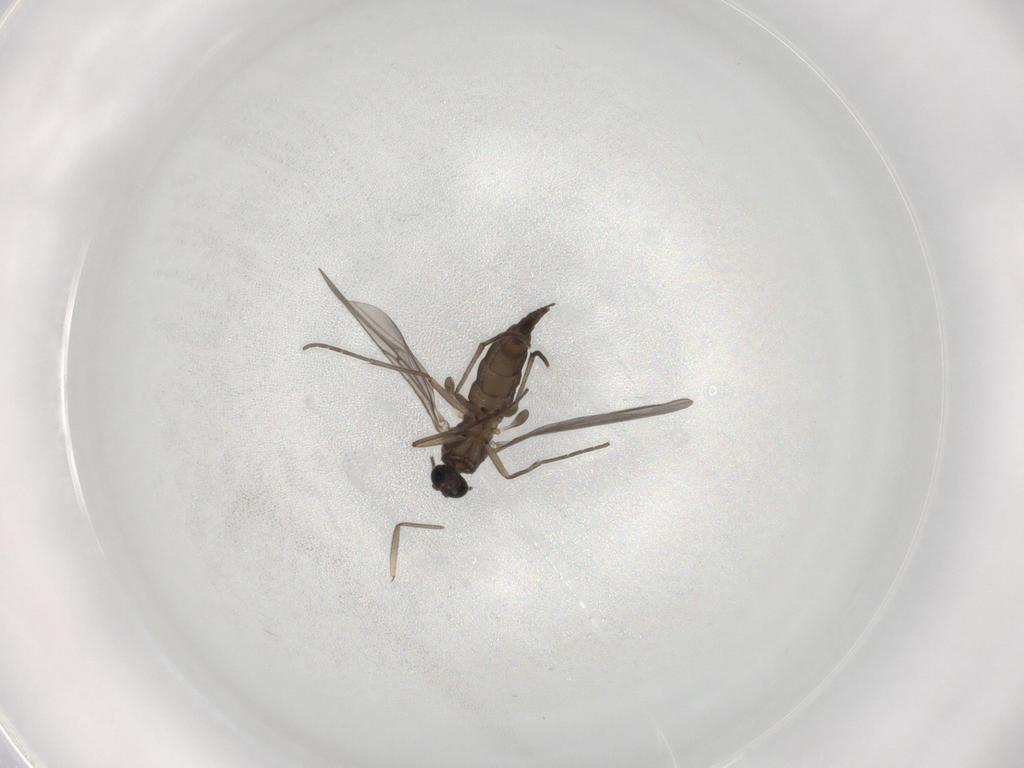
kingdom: Animalia
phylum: Arthropoda
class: Insecta
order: Diptera
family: Sciaridae
